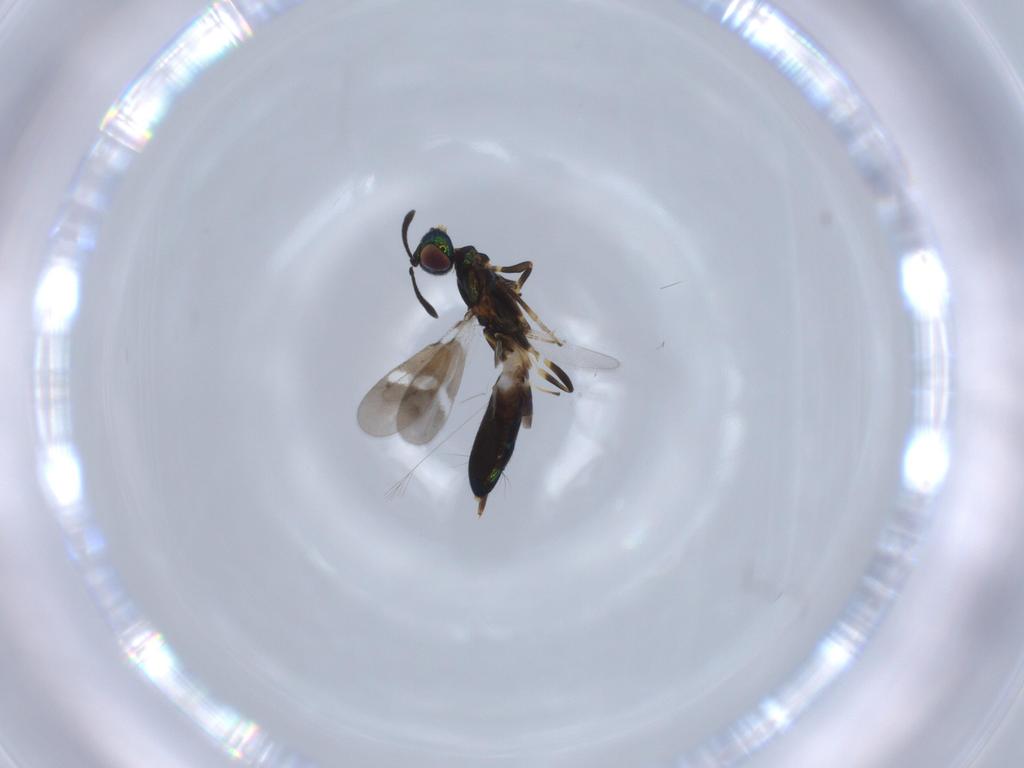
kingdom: Animalia
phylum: Arthropoda
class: Insecta
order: Hymenoptera
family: Eupelmidae
